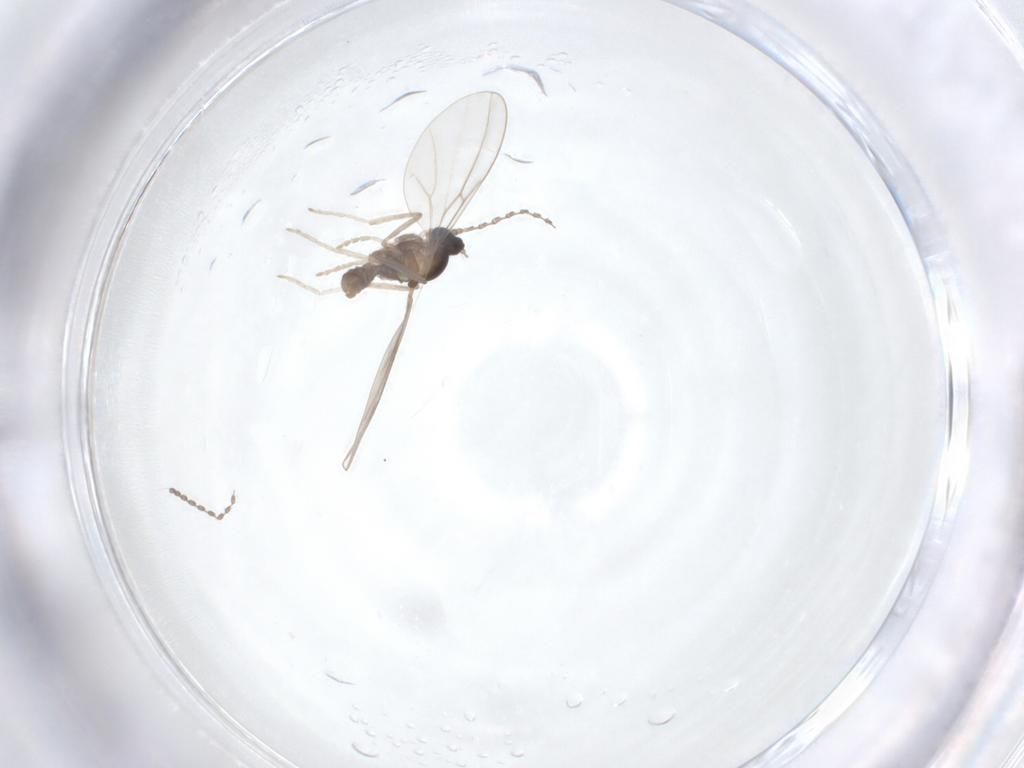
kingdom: Animalia
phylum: Arthropoda
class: Insecta
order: Diptera
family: Cecidomyiidae
